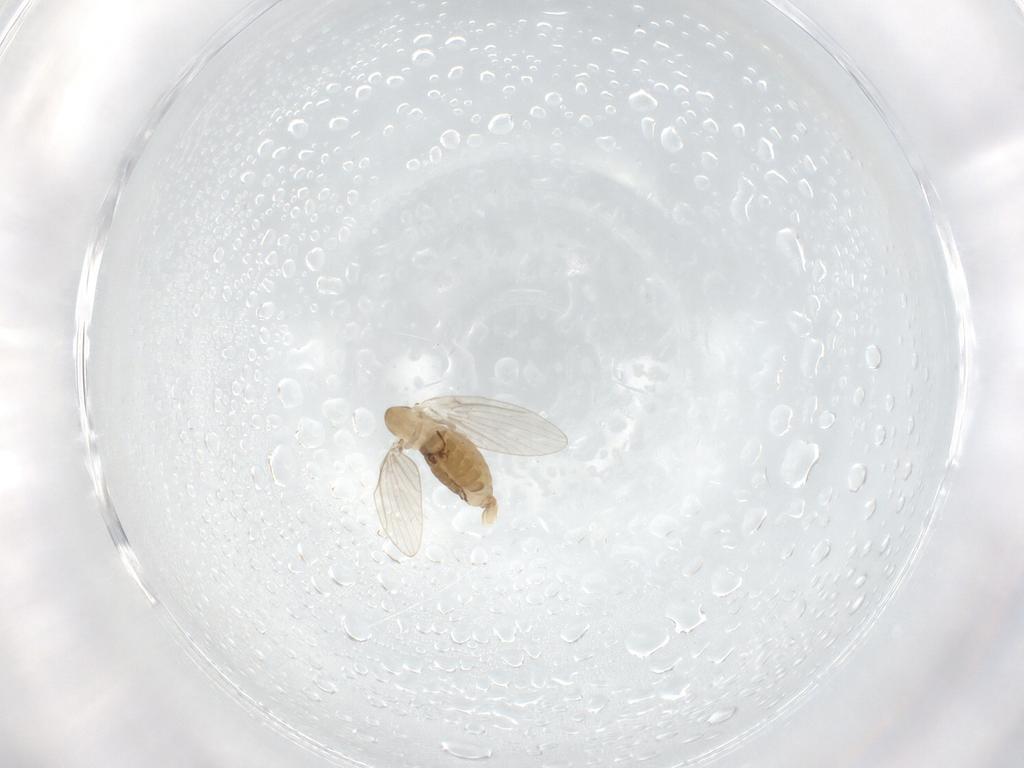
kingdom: Animalia
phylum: Arthropoda
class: Insecta
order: Diptera
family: Psychodidae
